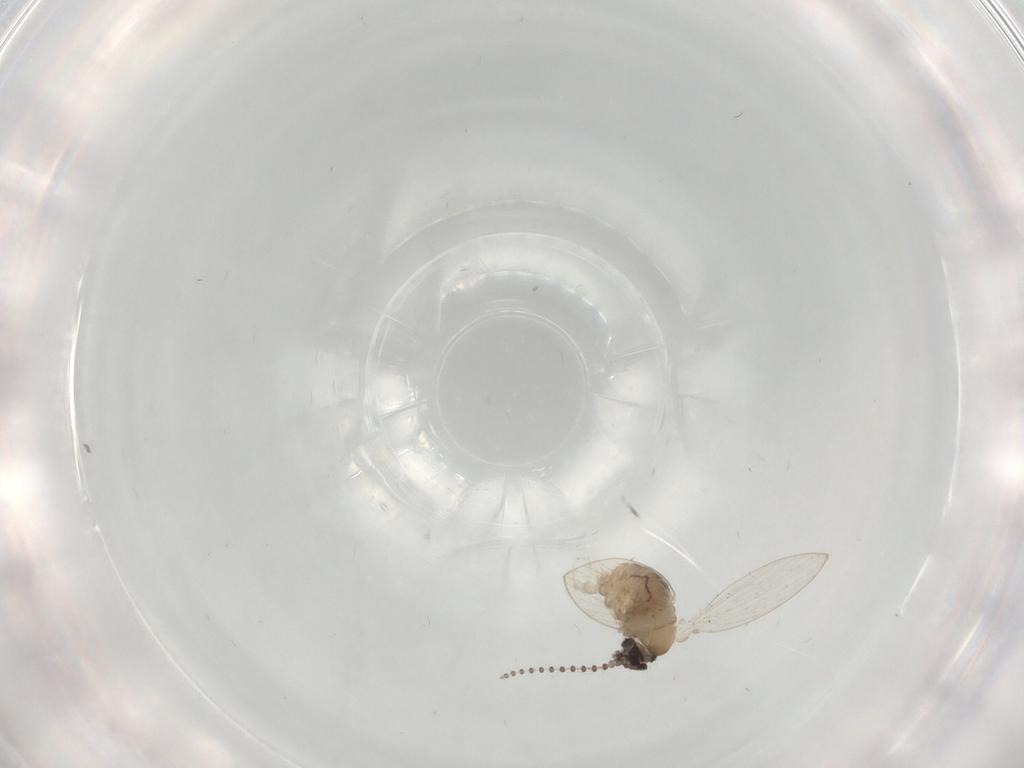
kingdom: Animalia
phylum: Arthropoda
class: Insecta
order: Diptera
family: Psychodidae
